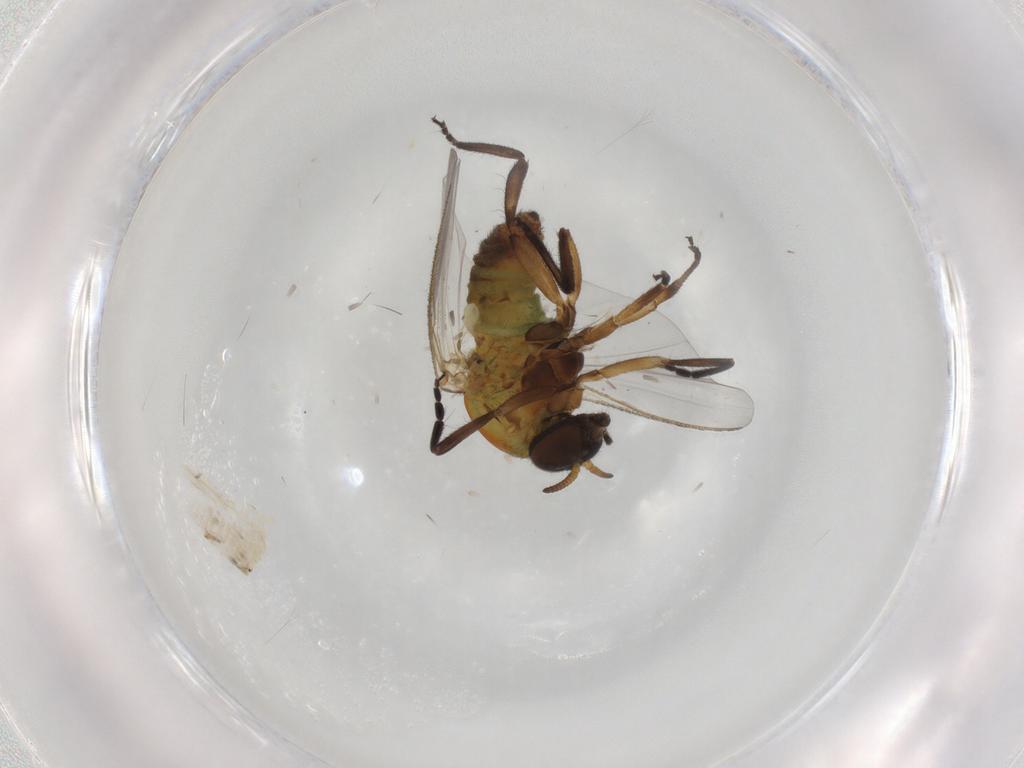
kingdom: Animalia
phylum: Arthropoda
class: Insecta
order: Diptera
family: Simuliidae
